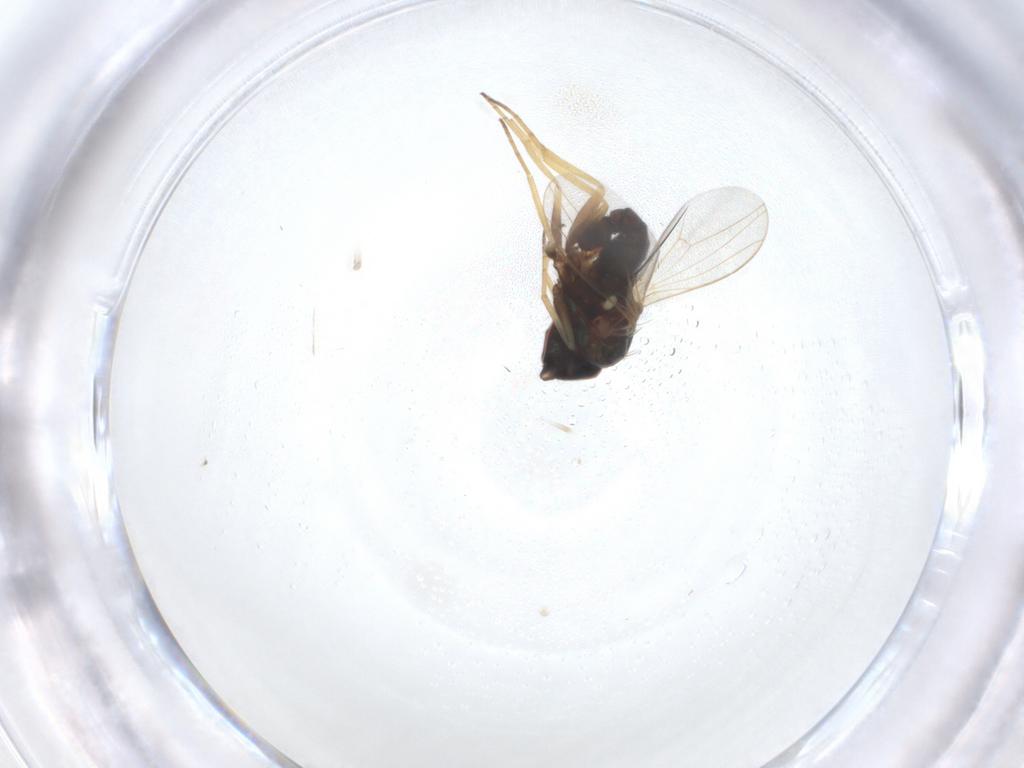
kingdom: Animalia
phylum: Arthropoda
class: Insecta
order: Diptera
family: Dolichopodidae
